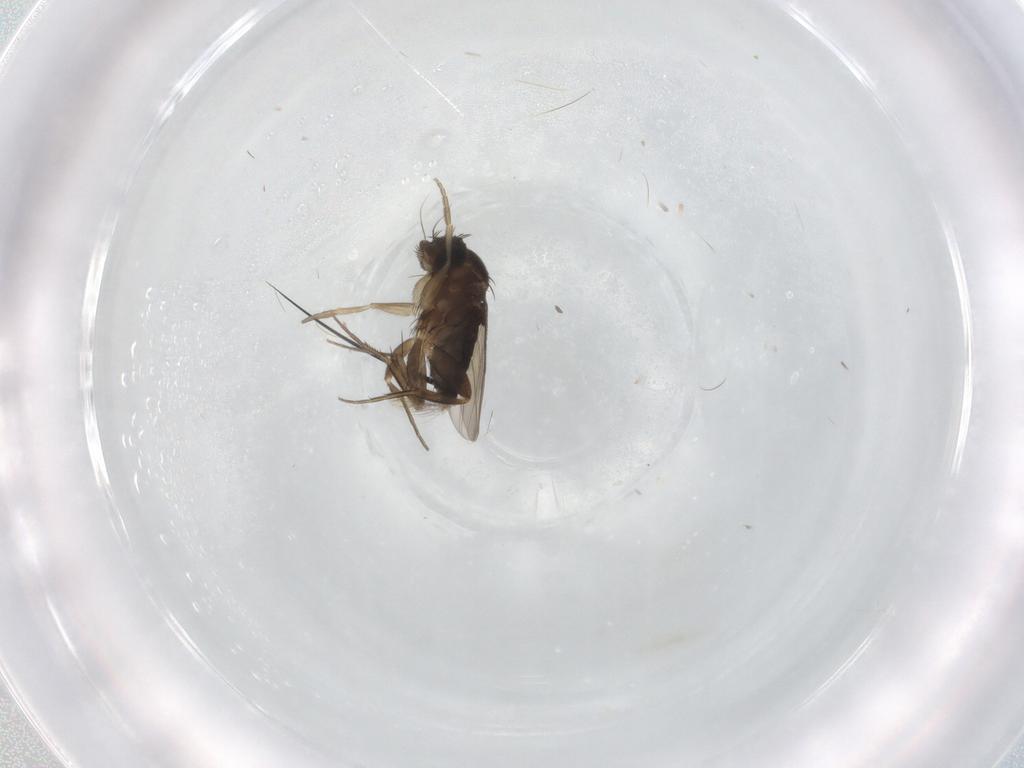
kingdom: Animalia
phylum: Arthropoda
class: Insecta
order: Diptera
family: Phoridae
